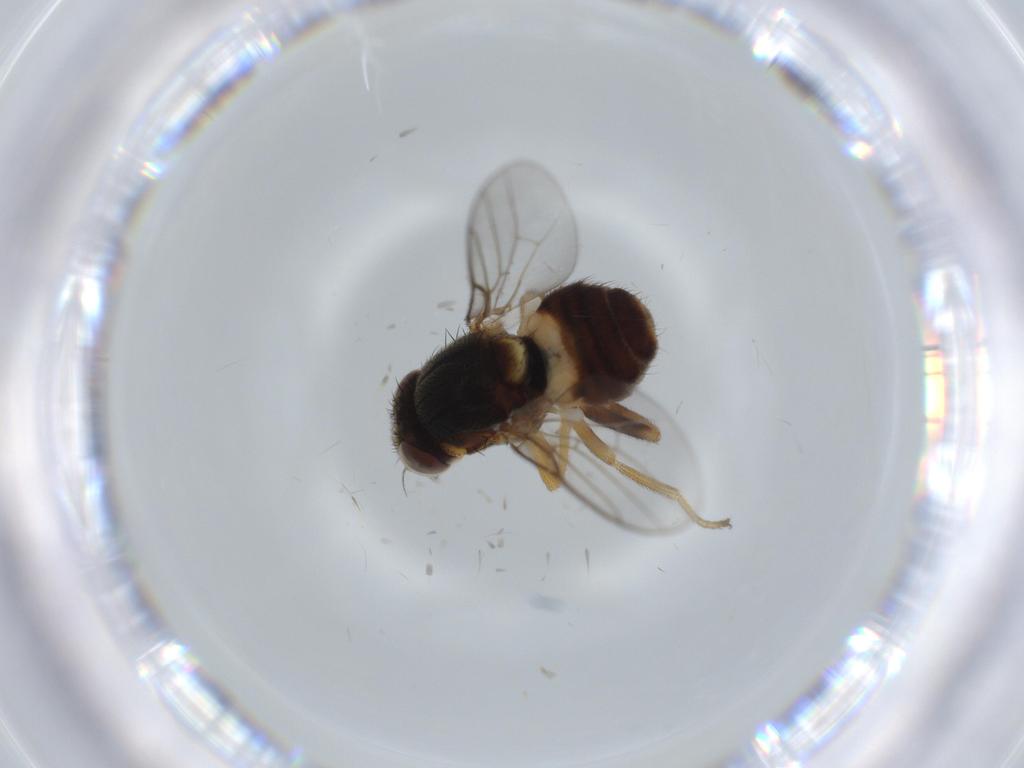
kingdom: Animalia
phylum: Arthropoda
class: Insecta
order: Diptera
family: Chloropidae
